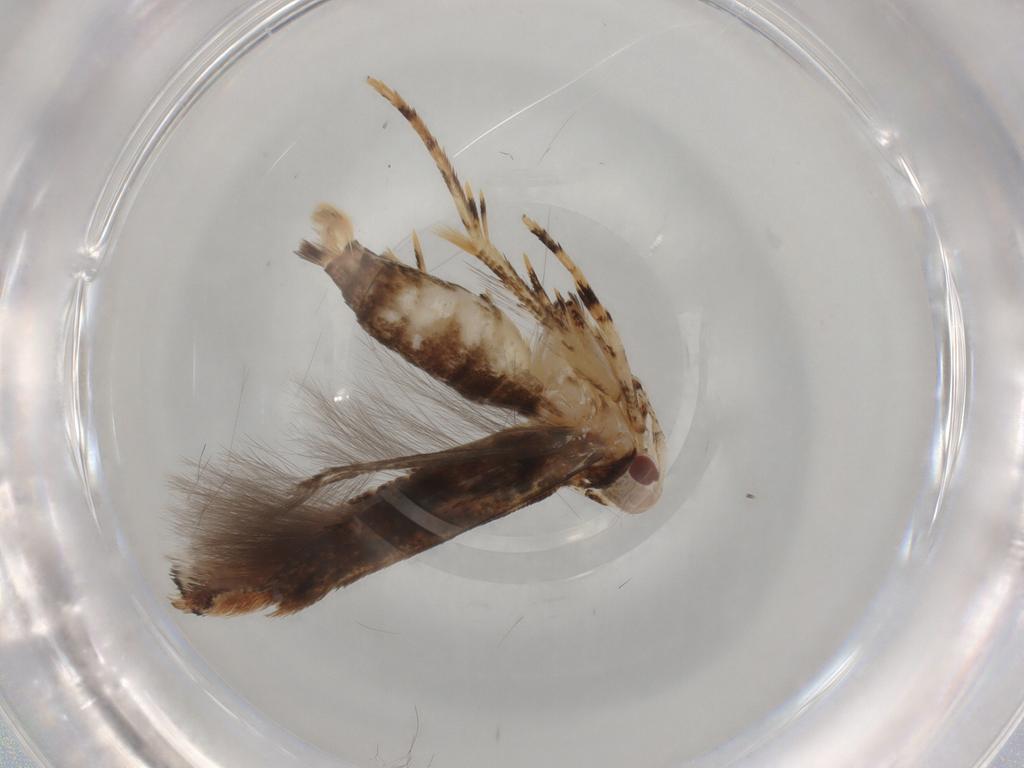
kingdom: Animalia
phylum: Arthropoda
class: Insecta
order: Lepidoptera
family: Cosmopterigidae
